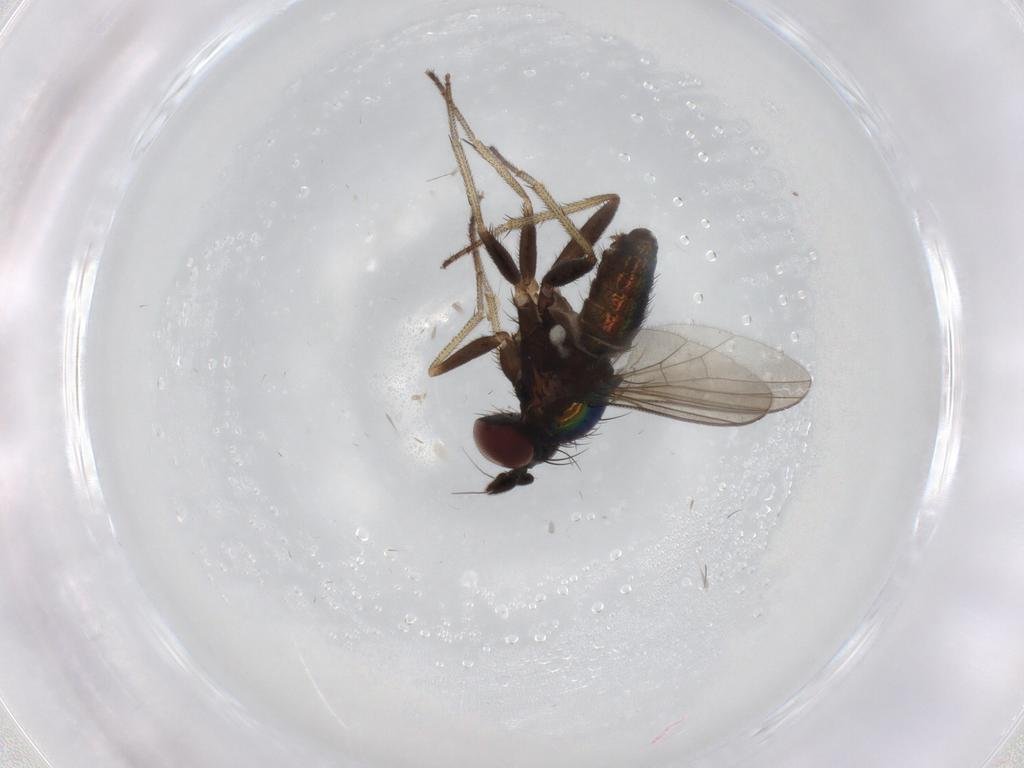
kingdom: Animalia
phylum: Arthropoda
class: Insecta
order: Diptera
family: Dolichopodidae
